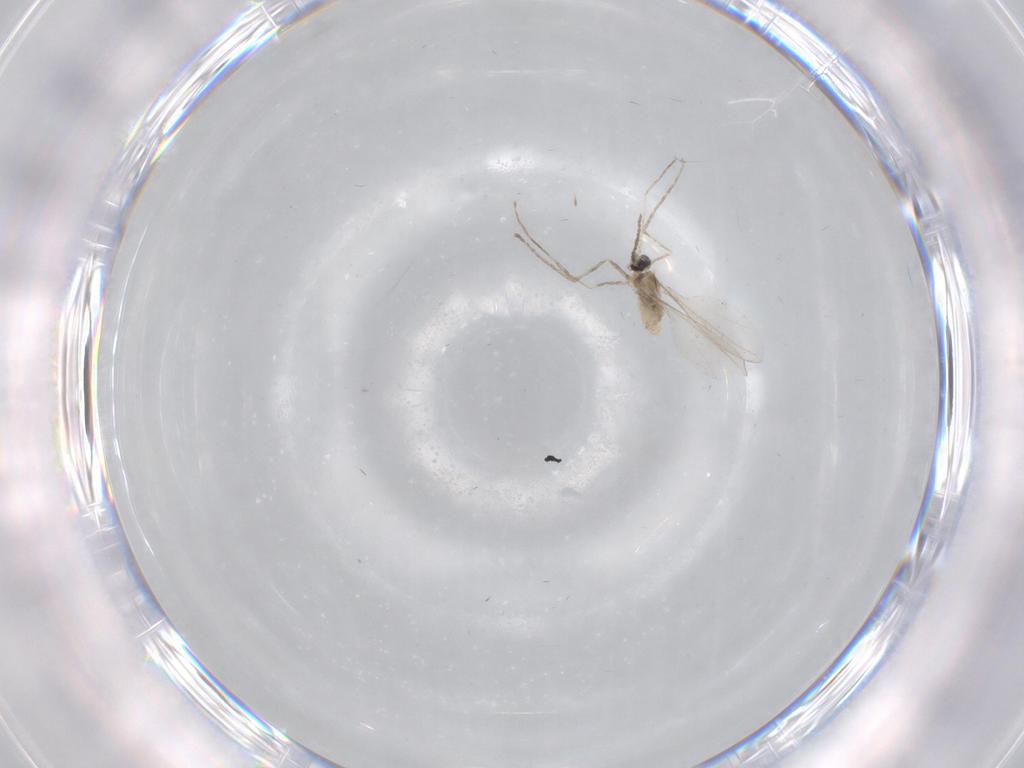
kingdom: Animalia
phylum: Arthropoda
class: Insecta
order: Diptera
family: Cecidomyiidae
